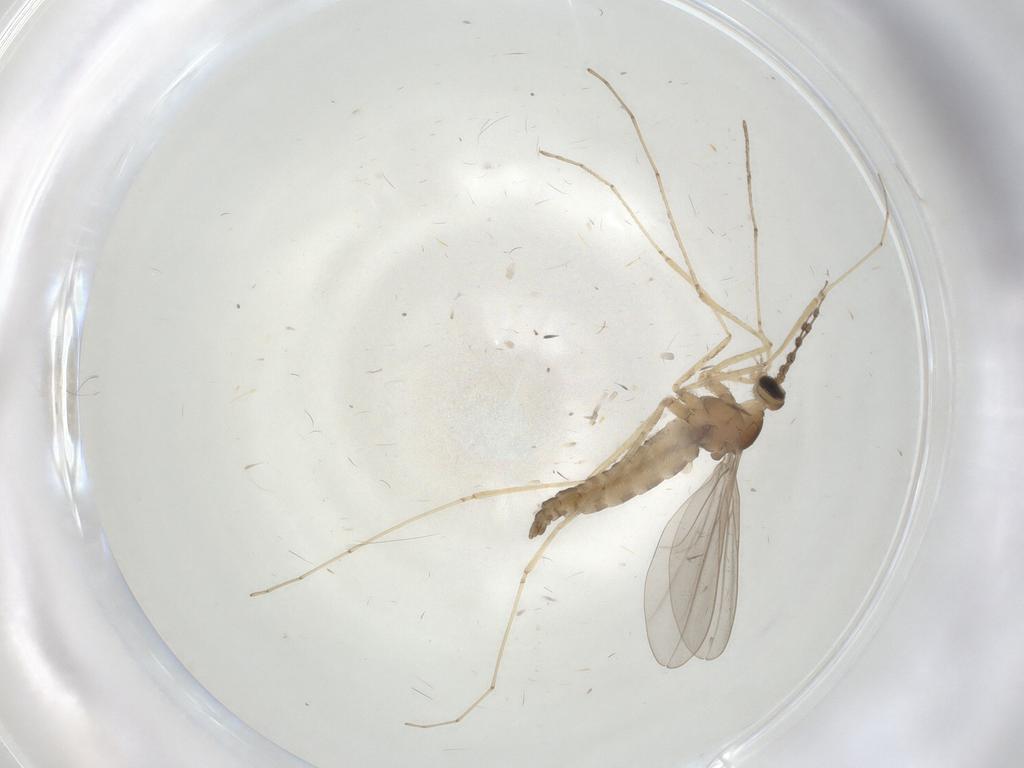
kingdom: Animalia
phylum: Arthropoda
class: Insecta
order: Diptera
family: Cecidomyiidae
